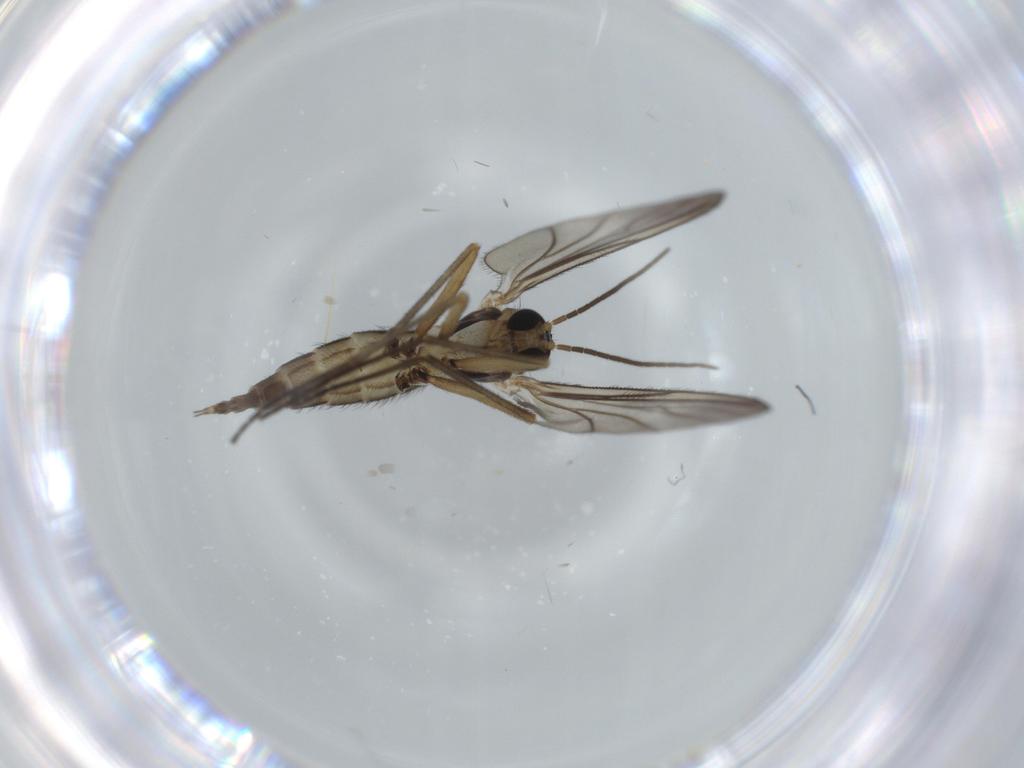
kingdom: Animalia
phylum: Arthropoda
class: Insecta
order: Diptera
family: Sciaridae
